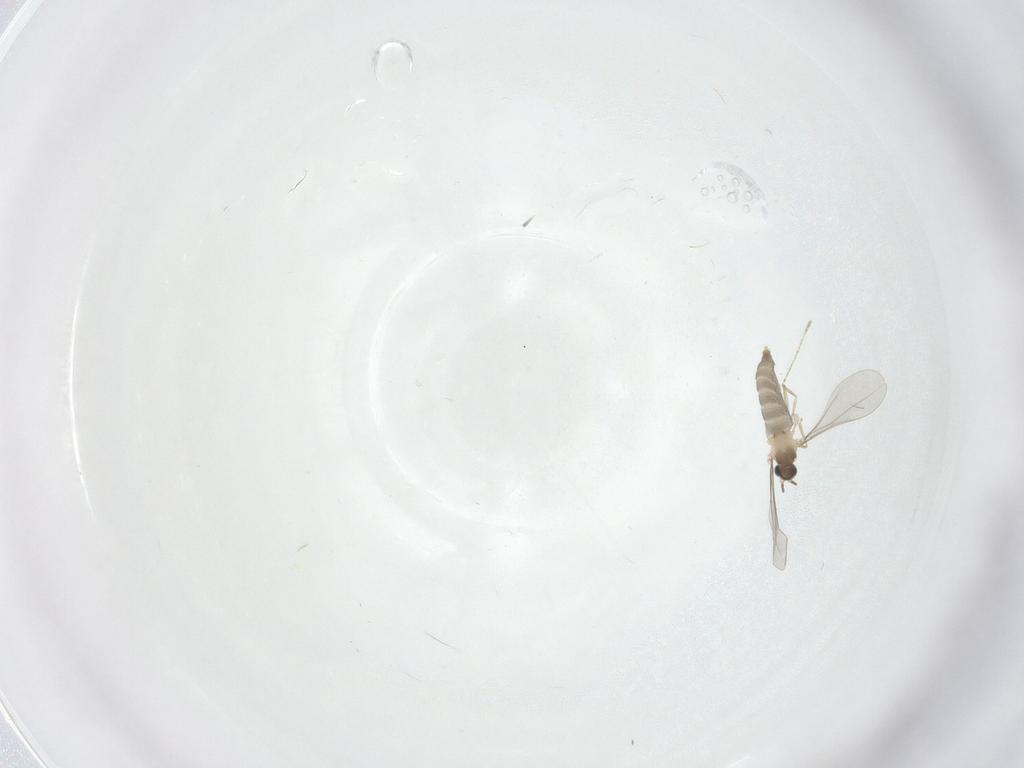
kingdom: Animalia
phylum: Arthropoda
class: Insecta
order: Diptera
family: Cecidomyiidae
